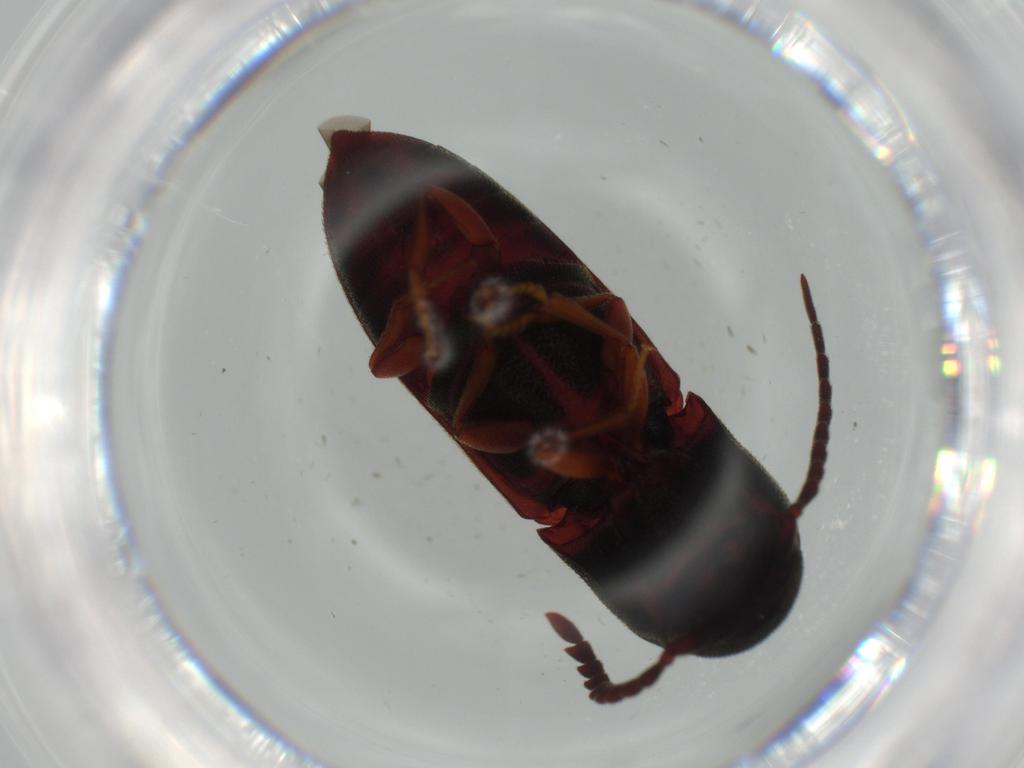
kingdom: Animalia
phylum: Arthropoda
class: Insecta
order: Coleoptera
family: Eucnemidae
